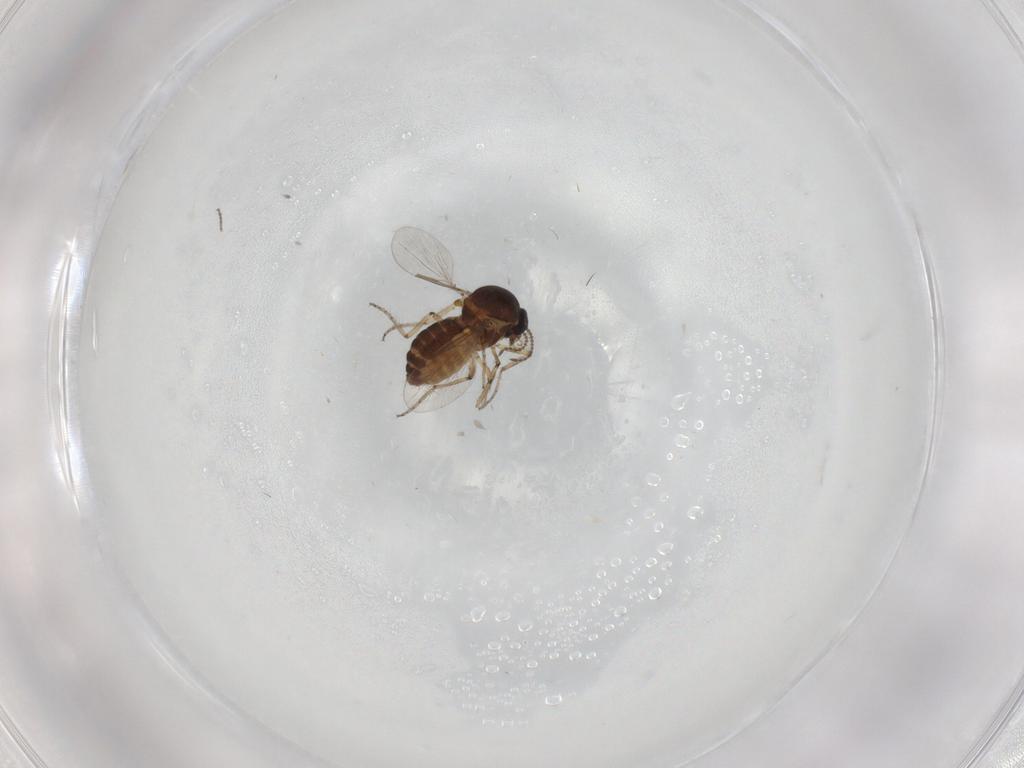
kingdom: Animalia
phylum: Arthropoda
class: Insecta
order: Diptera
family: Ceratopogonidae
